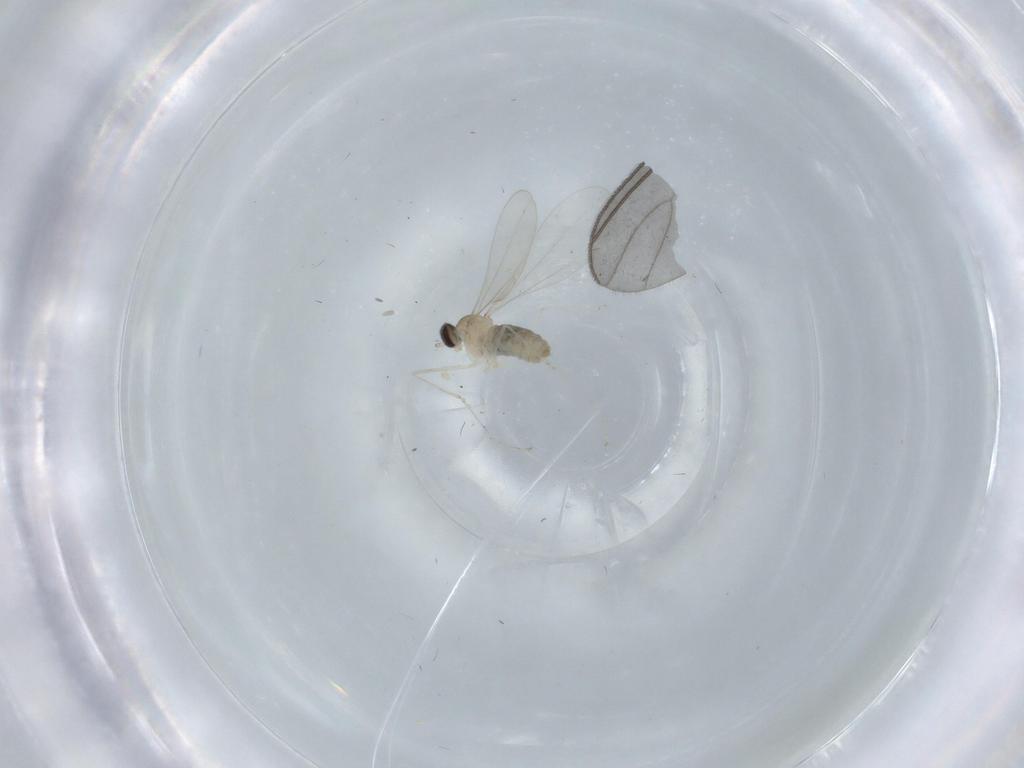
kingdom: Animalia
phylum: Arthropoda
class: Insecta
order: Diptera
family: Cecidomyiidae
